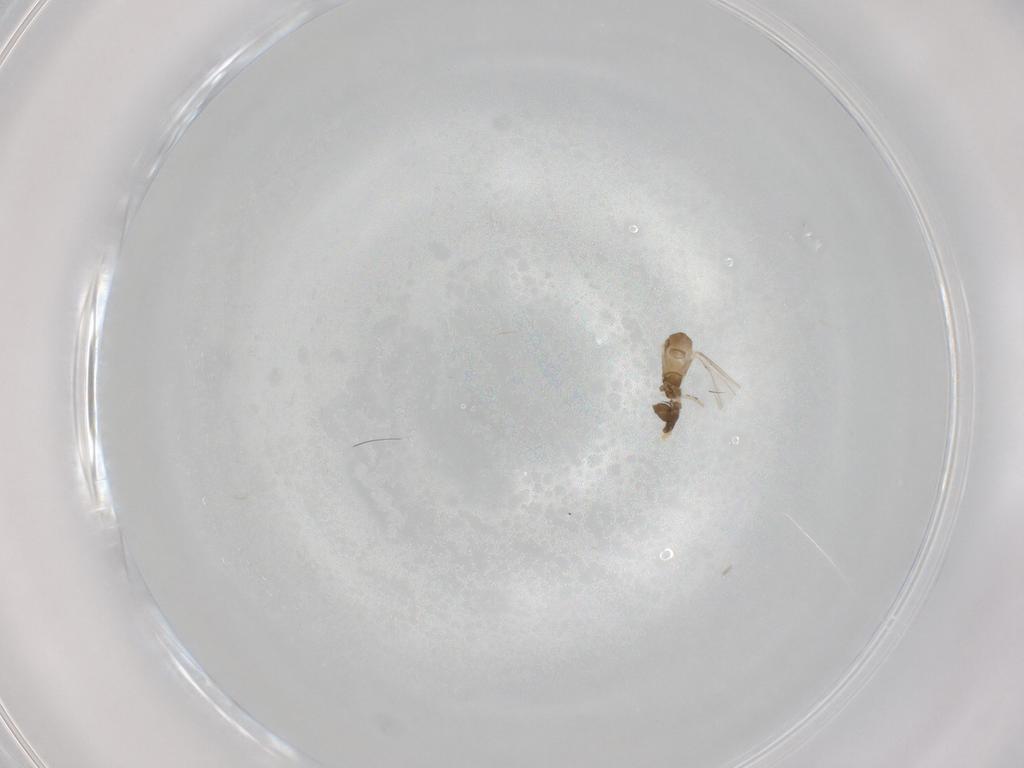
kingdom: Animalia
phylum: Arthropoda
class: Insecta
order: Diptera
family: Cecidomyiidae
